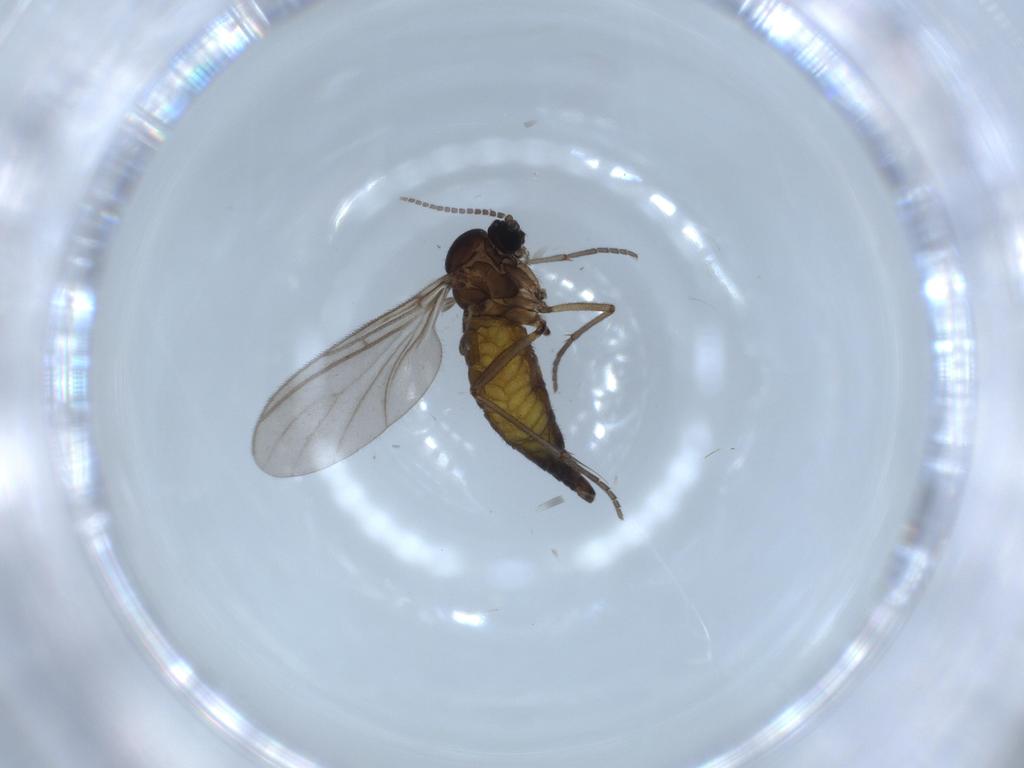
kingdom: Animalia
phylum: Arthropoda
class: Insecta
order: Diptera
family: Sciaridae
